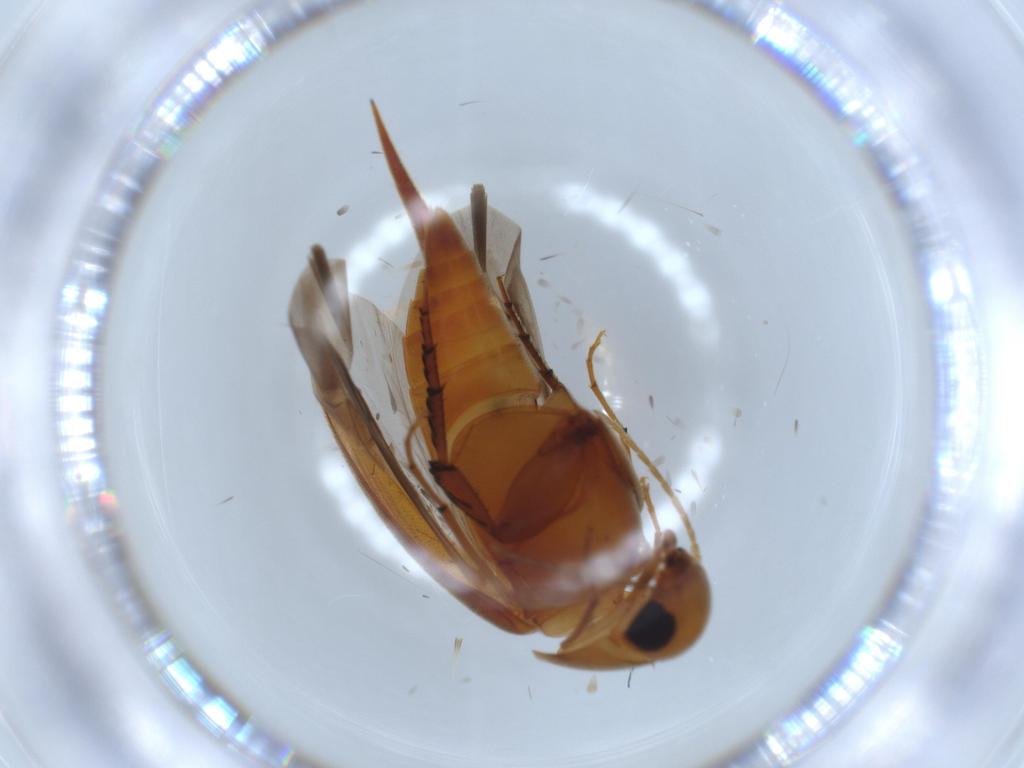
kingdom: Animalia
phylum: Arthropoda
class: Insecta
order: Coleoptera
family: Mordellidae
